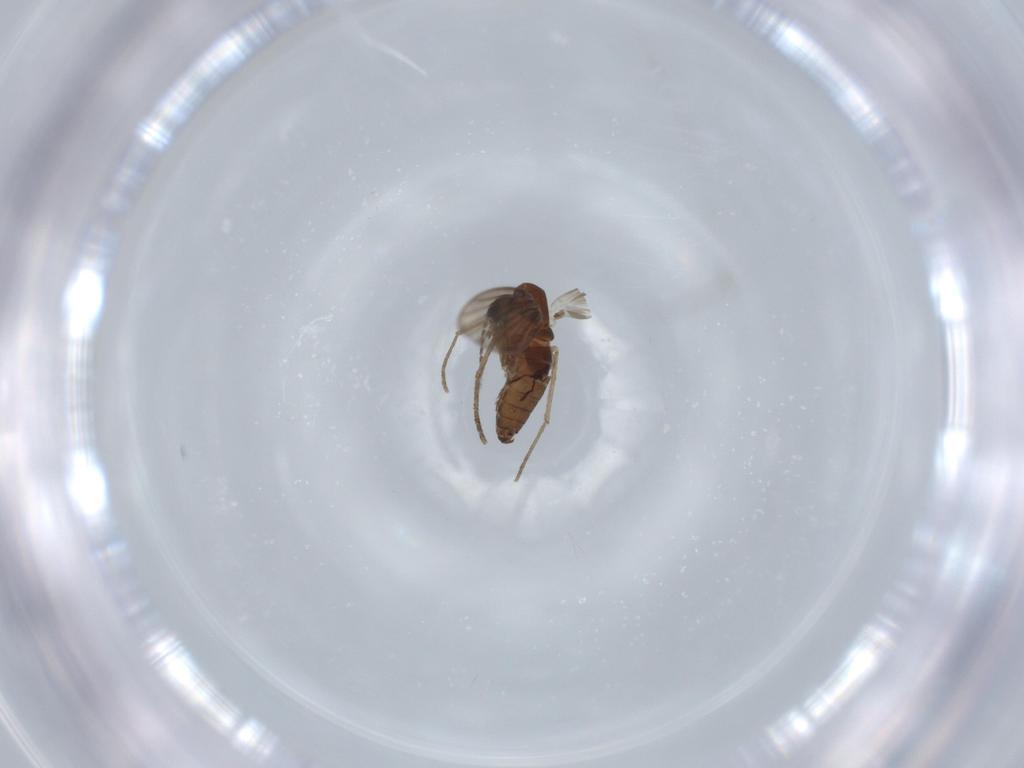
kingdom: Animalia
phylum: Arthropoda
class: Insecta
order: Diptera
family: Psychodidae
